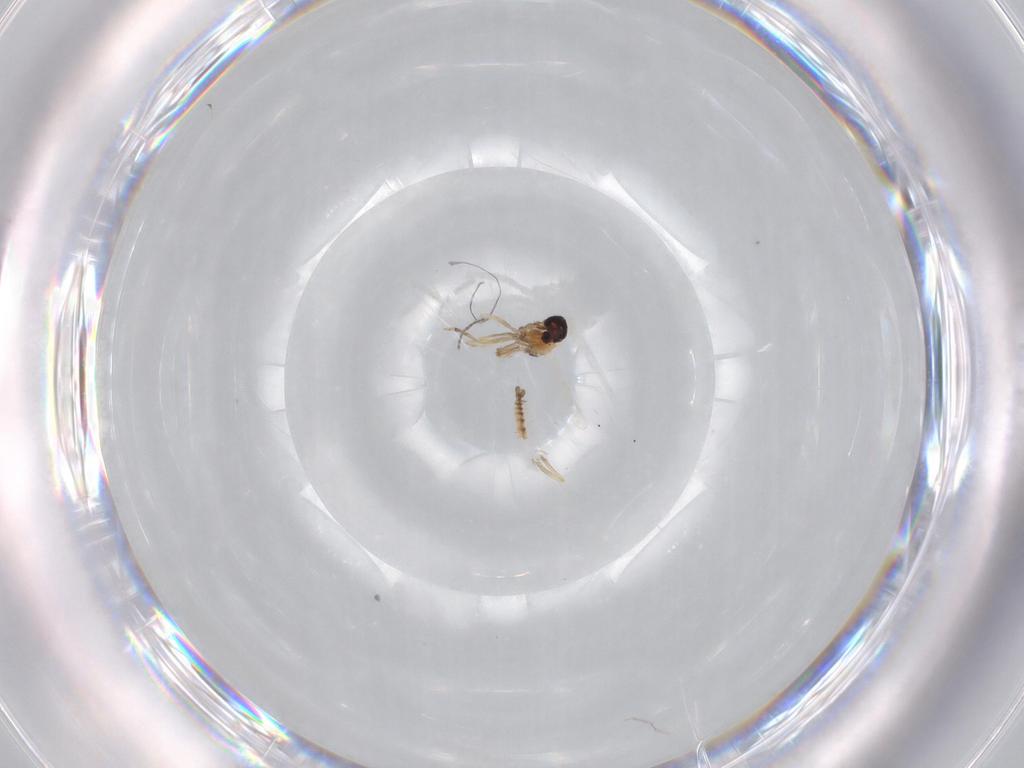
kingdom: Animalia
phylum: Arthropoda
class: Insecta
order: Diptera
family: Ceratopogonidae
